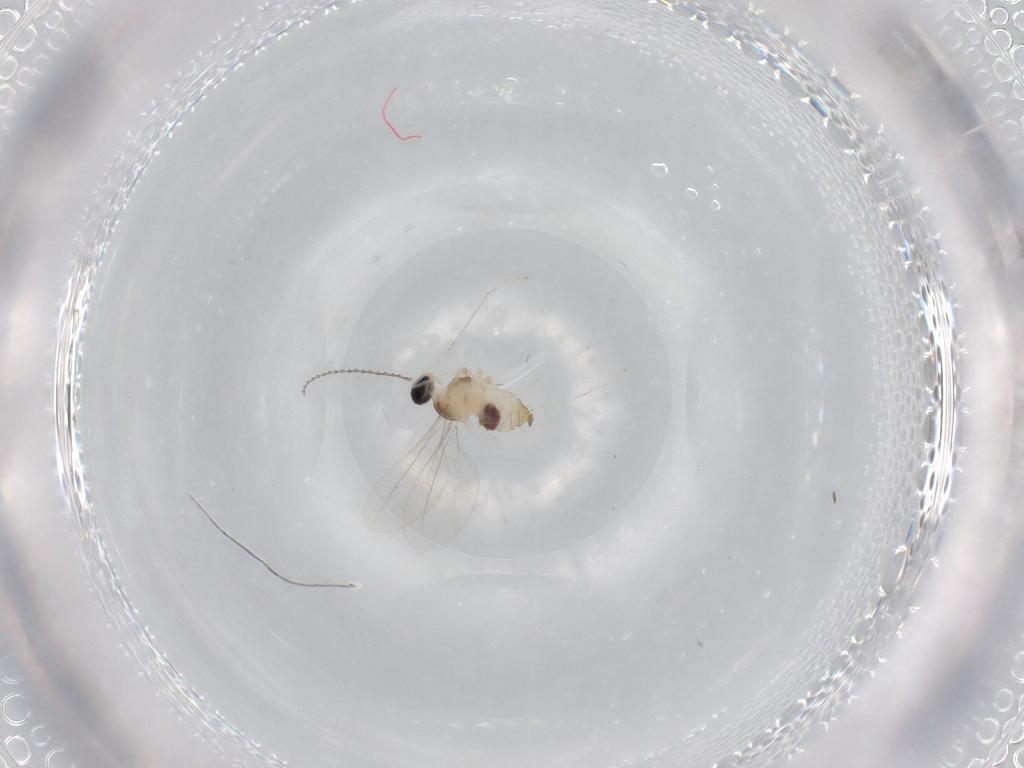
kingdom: Animalia
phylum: Arthropoda
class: Insecta
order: Diptera
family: Cecidomyiidae
